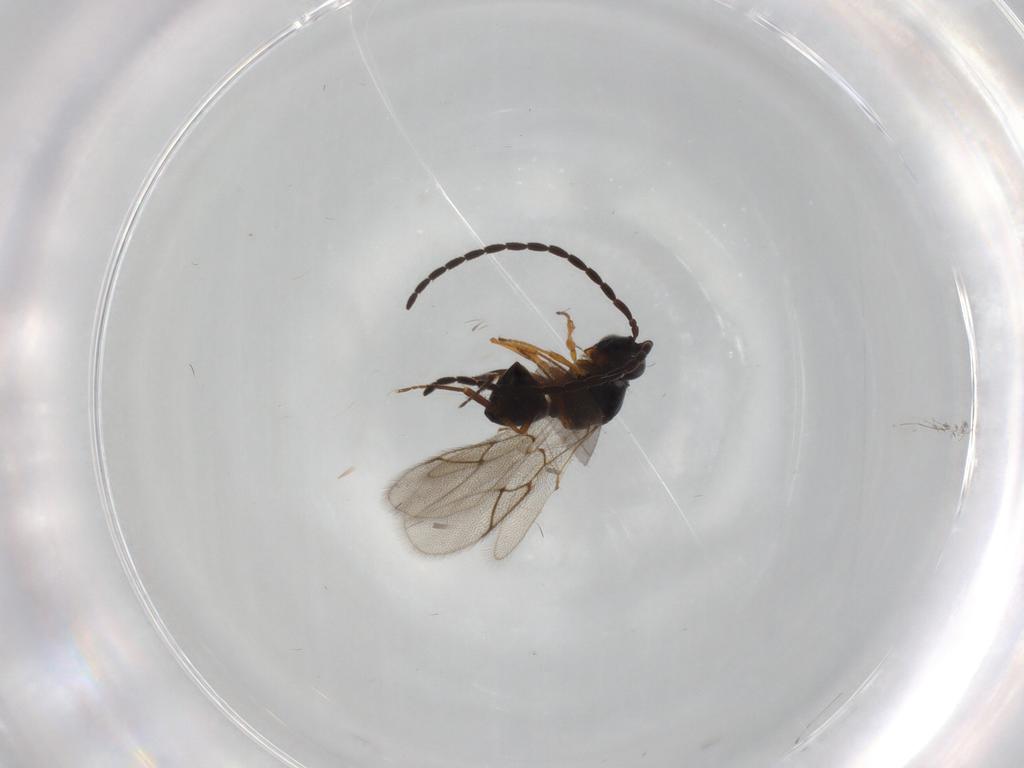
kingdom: Animalia
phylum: Arthropoda
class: Insecta
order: Hymenoptera
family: Figitidae
